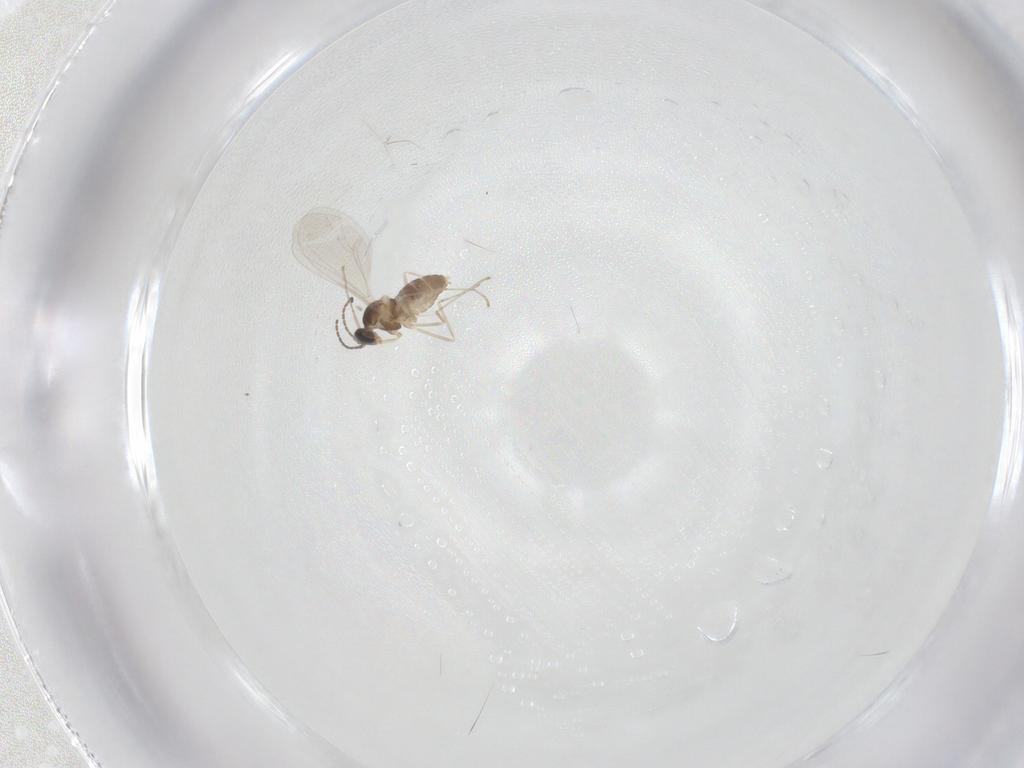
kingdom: Animalia
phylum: Arthropoda
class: Insecta
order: Diptera
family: Cecidomyiidae
